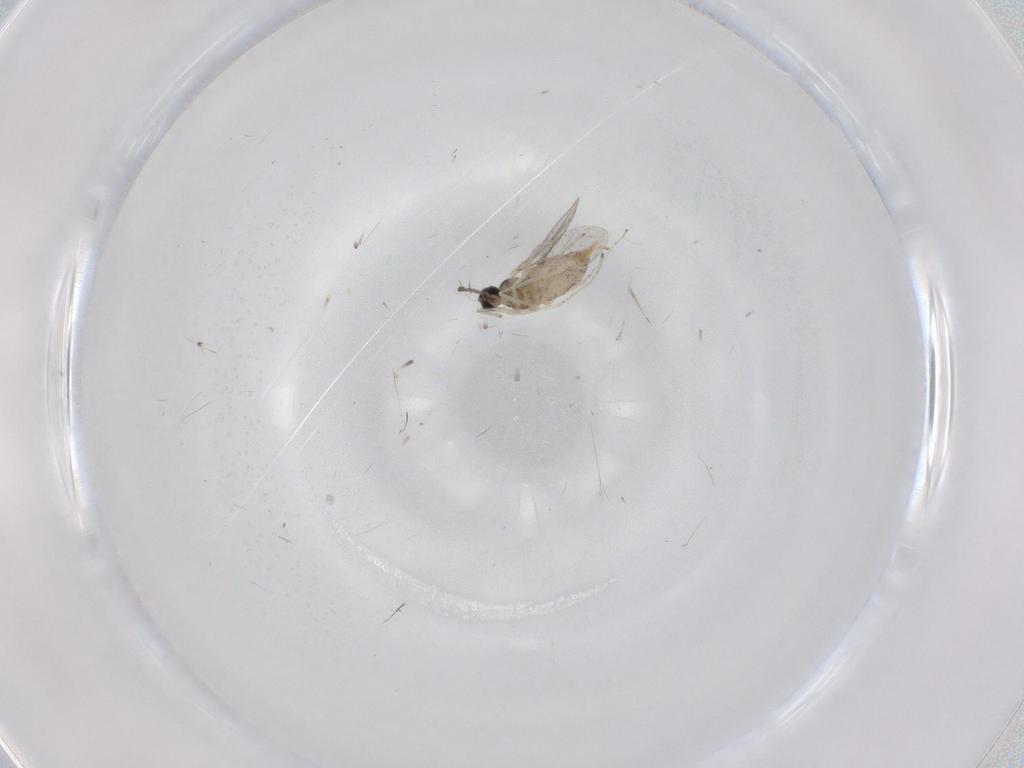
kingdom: Animalia
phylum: Arthropoda
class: Insecta
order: Diptera
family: Cecidomyiidae
